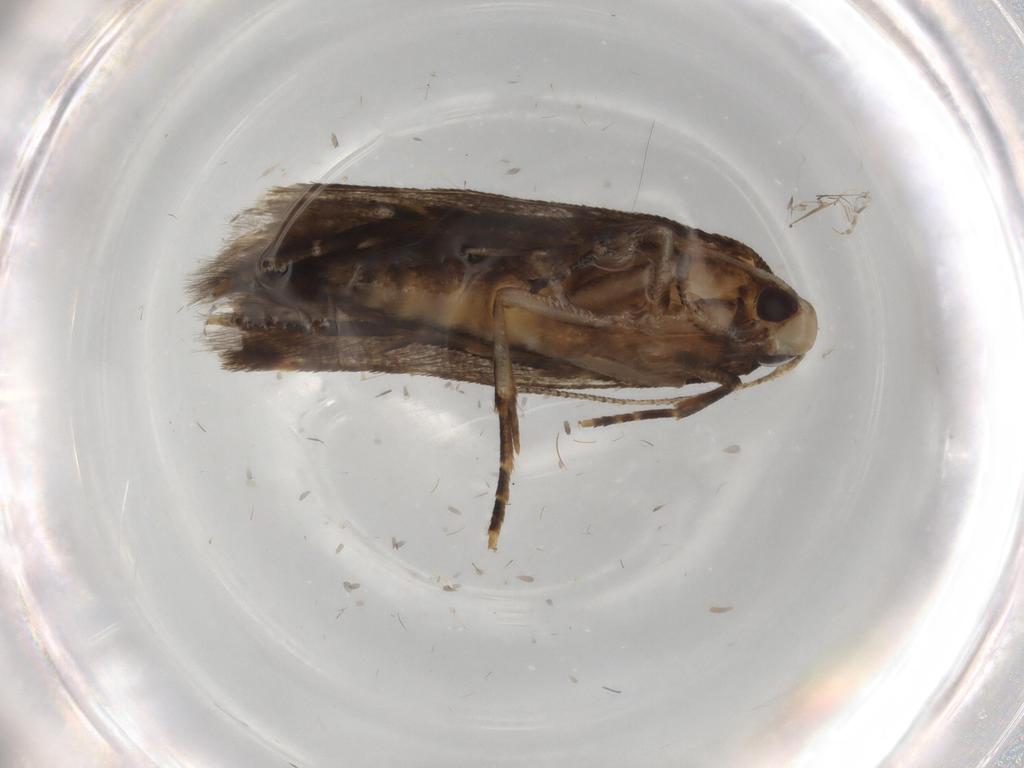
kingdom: Animalia
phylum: Arthropoda
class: Insecta
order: Lepidoptera
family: Gelechiidae
